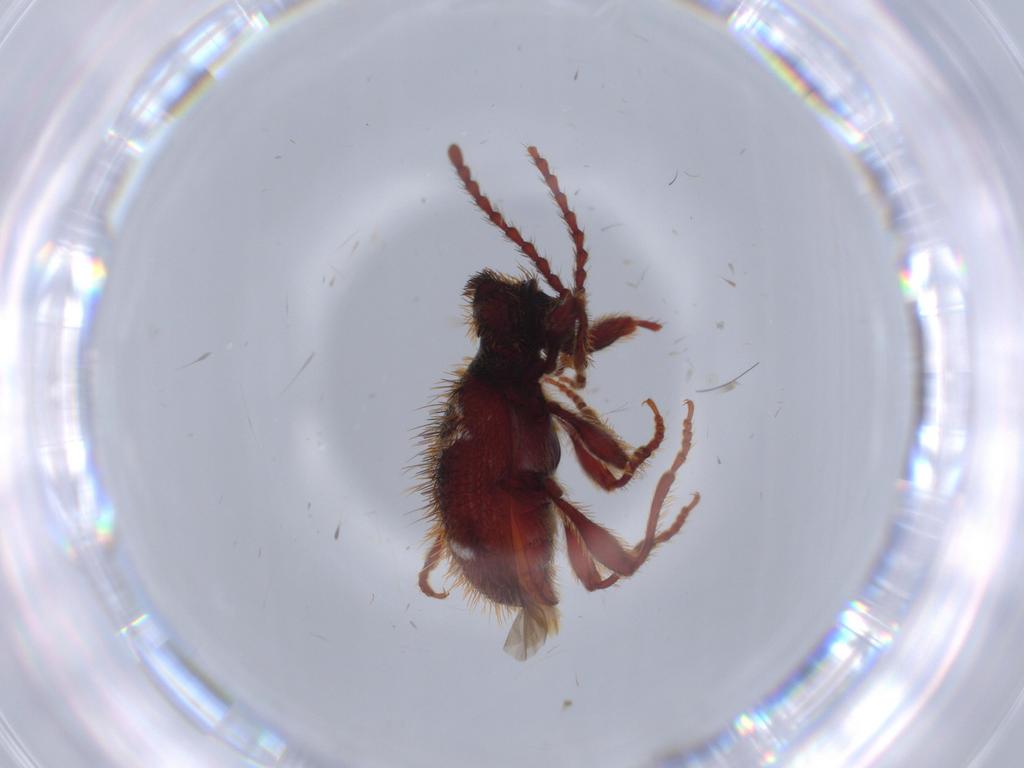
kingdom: Animalia
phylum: Arthropoda
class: Insecta
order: Coleoptera
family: Ptinidae
